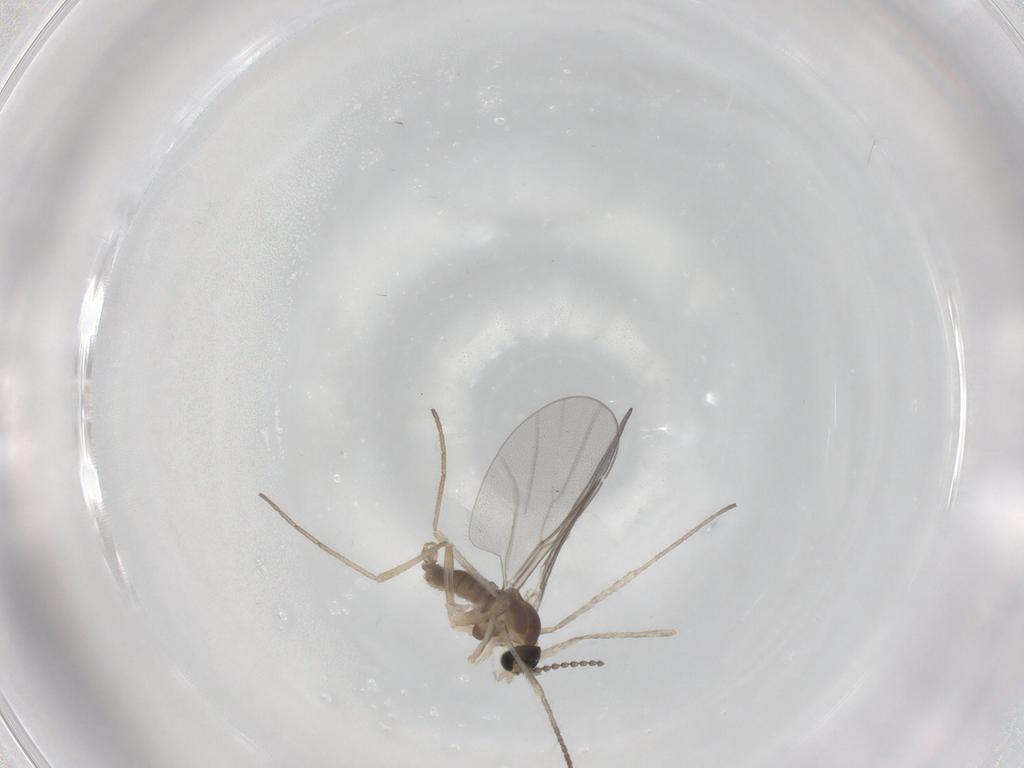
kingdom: Animalia
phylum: Arthropoda
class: Insecta
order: Diptera
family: Cecidomyiidae
